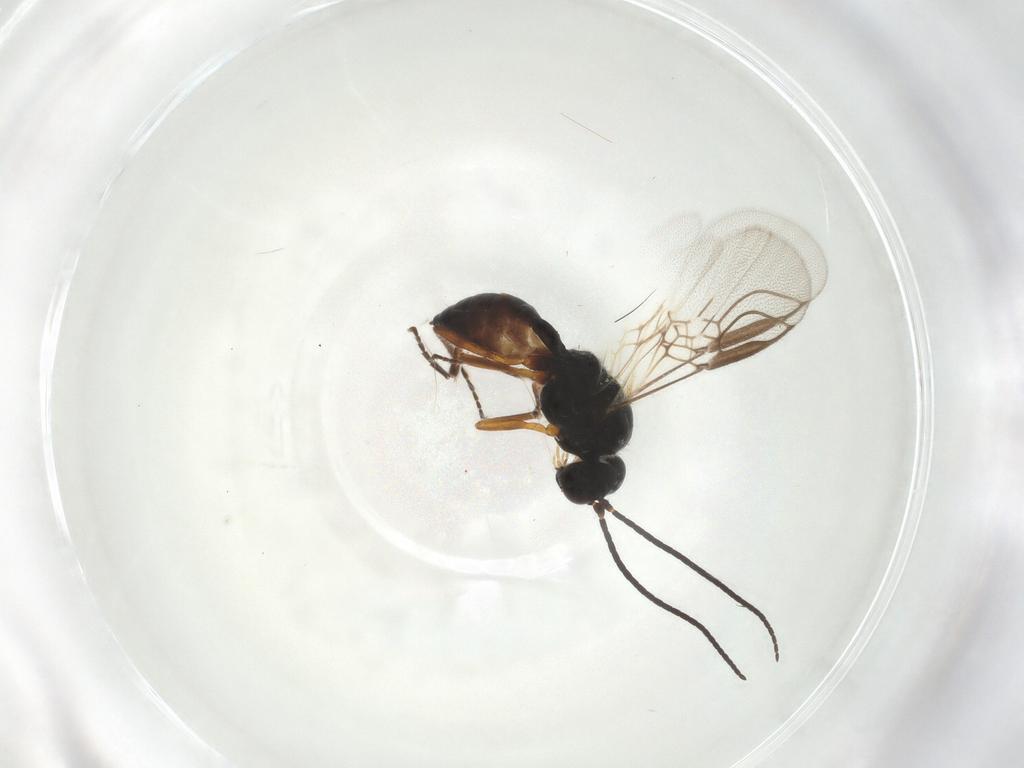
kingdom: Animalia
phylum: Arthropoda
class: Insecta
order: Hymenoptera
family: Braconidae
